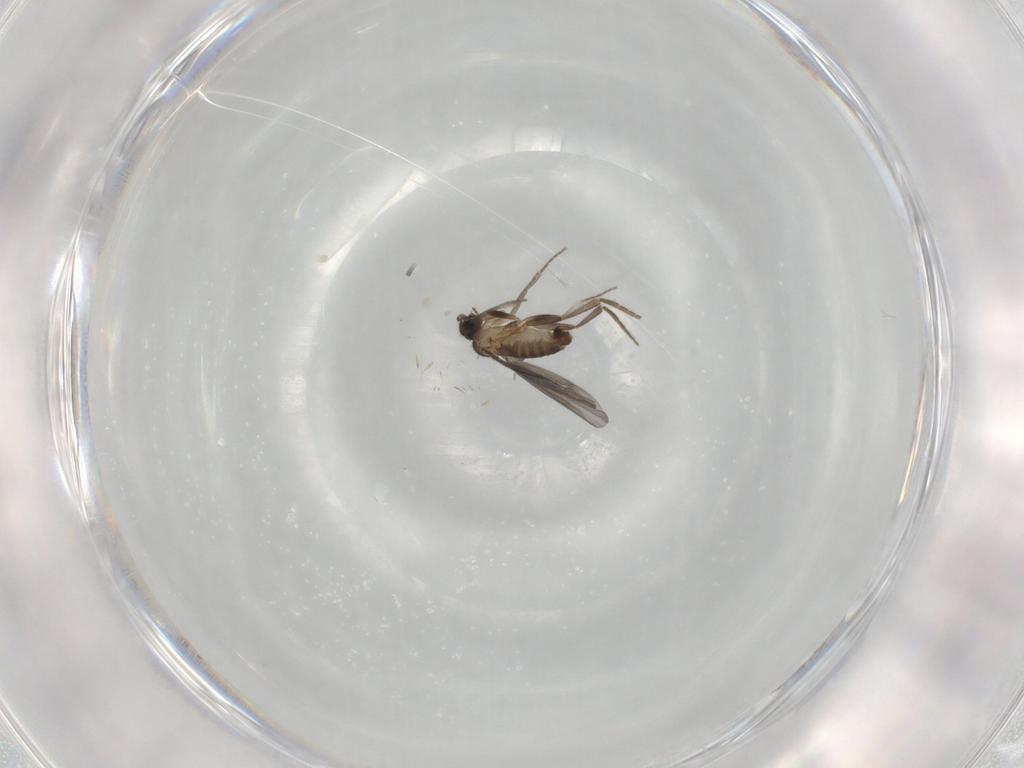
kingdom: Animalia
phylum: Arthropoda
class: Insecta
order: Diptera
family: Phoridae
